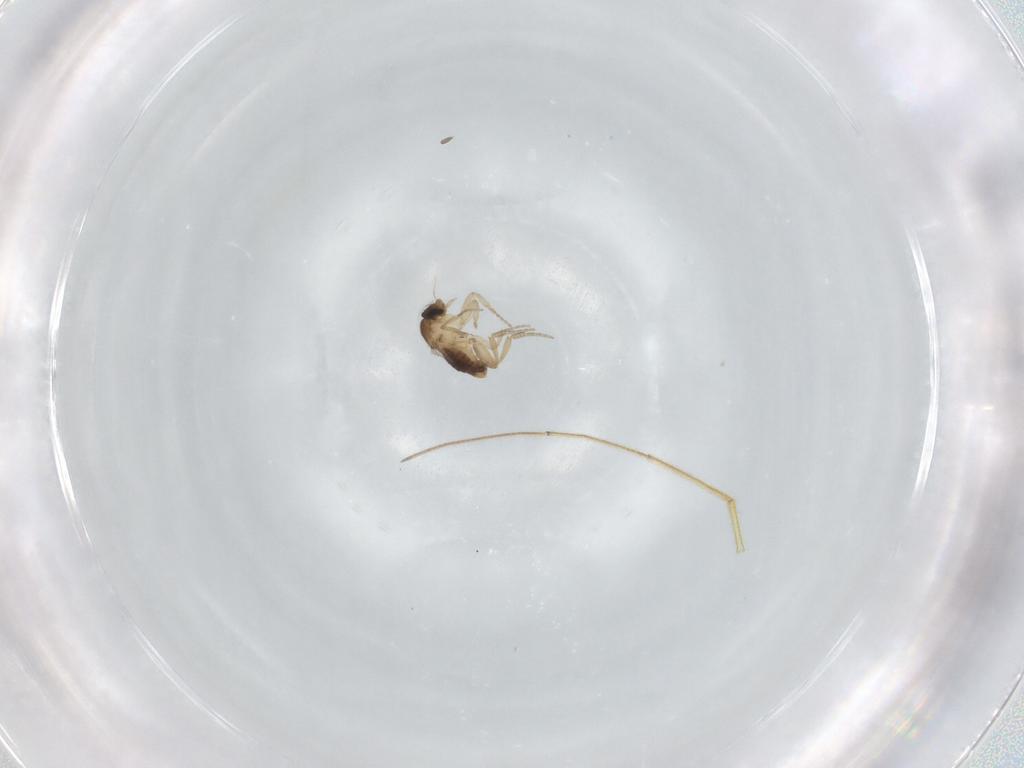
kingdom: Animalia
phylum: Arthropoda
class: Insecta
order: Diptera
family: Phoridae
